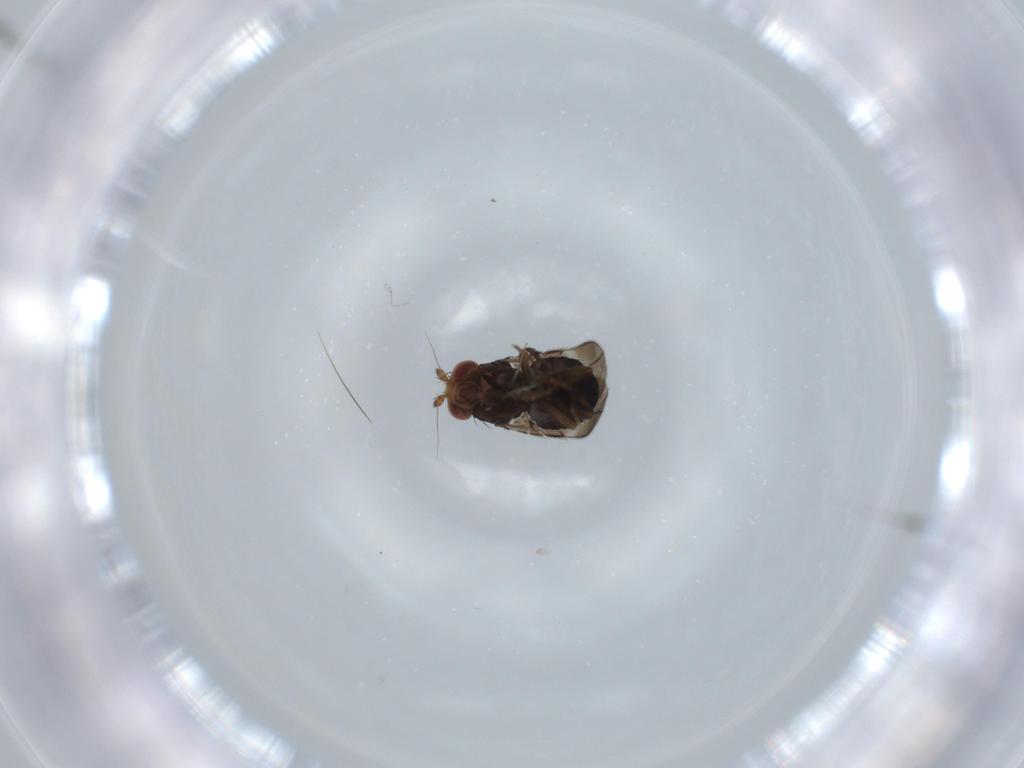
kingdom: Animalia
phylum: Arthropoda
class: Insecta
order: Diptera
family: Sphaeroceridae
